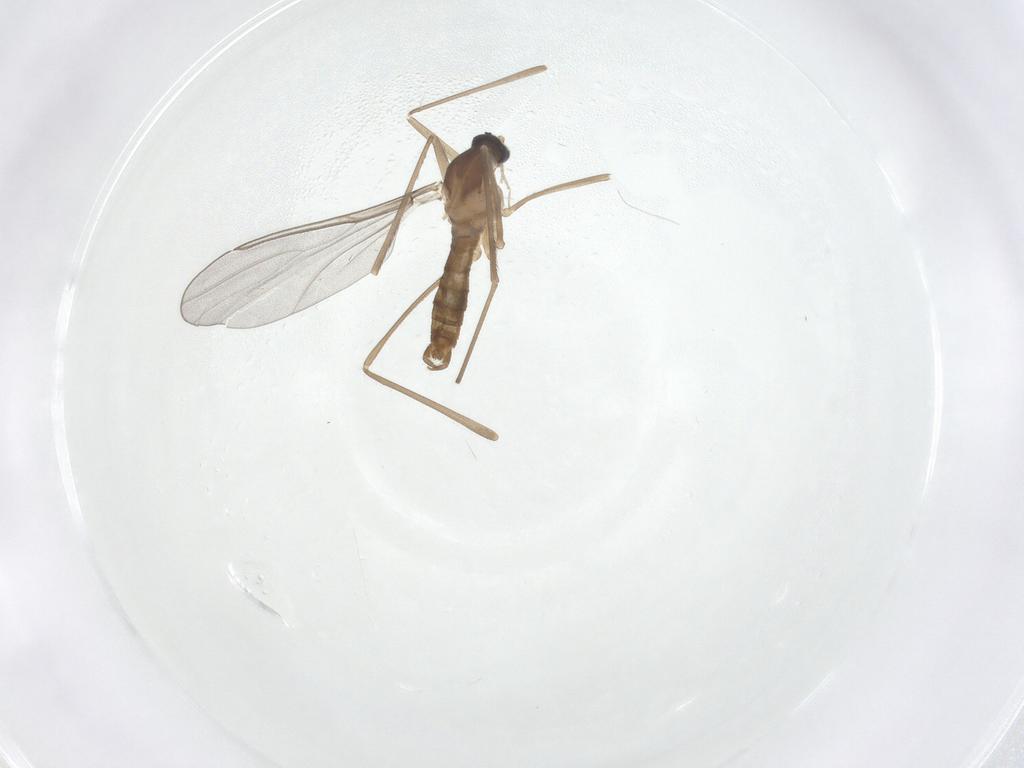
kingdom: Animalia
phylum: Arthropoda
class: Insecta
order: Diptera
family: Cecidomyiidae
